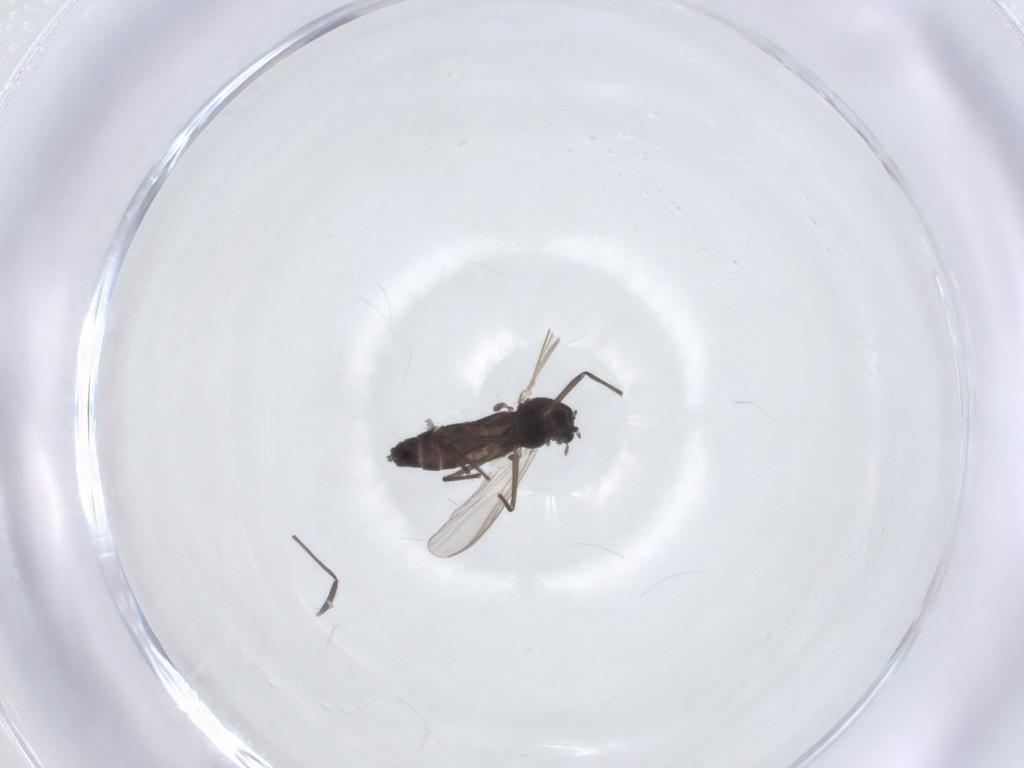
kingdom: Animalia
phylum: Arthropoda
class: Insecta
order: Diptera
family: Chironomidae
